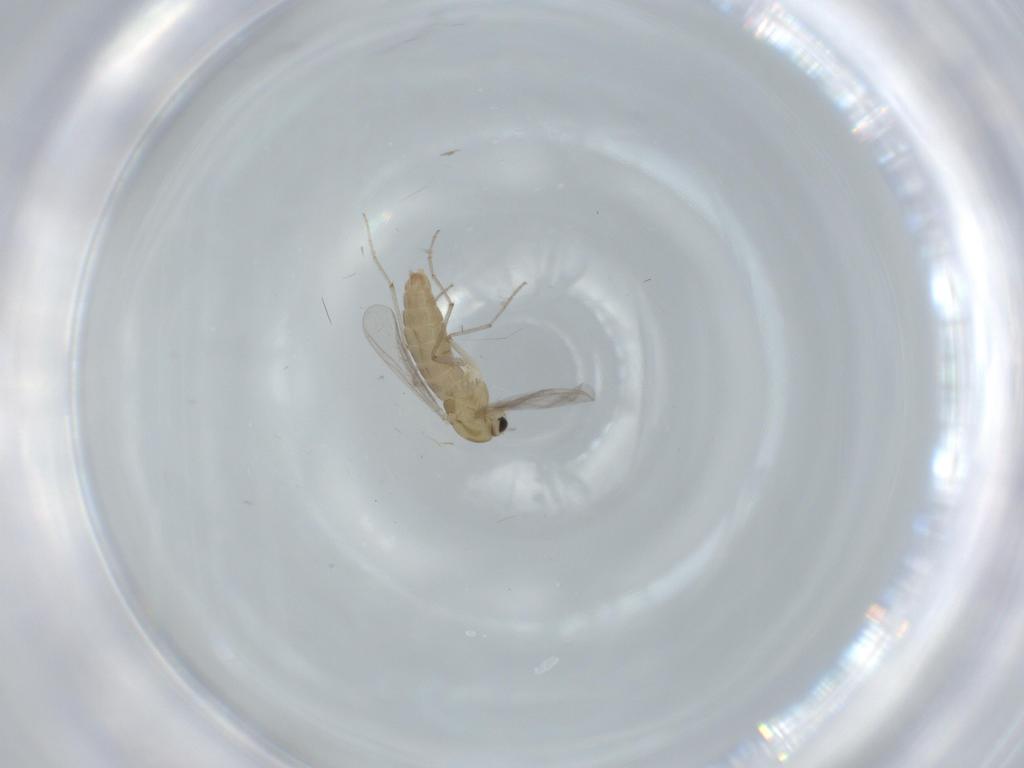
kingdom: Animalia
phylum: Arthropoda
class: Insecta
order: Diptera
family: Chironomidae
